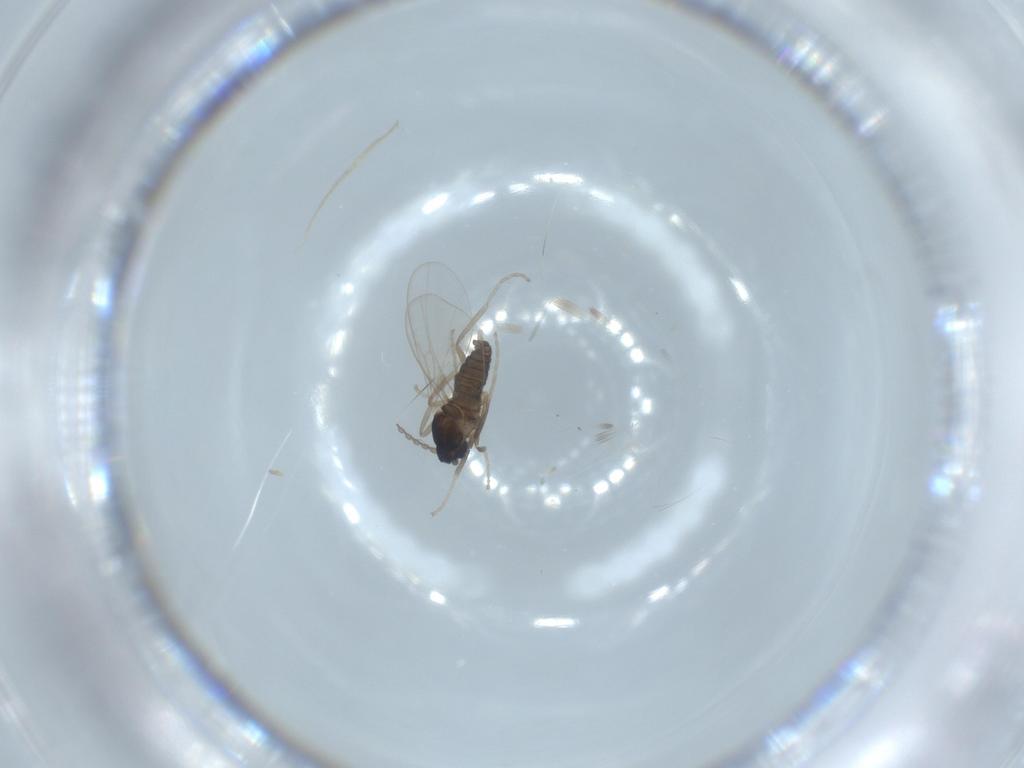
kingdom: Animalia
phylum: Arthropoda
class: Insecta
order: Diptera
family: Cecidomyiidae
